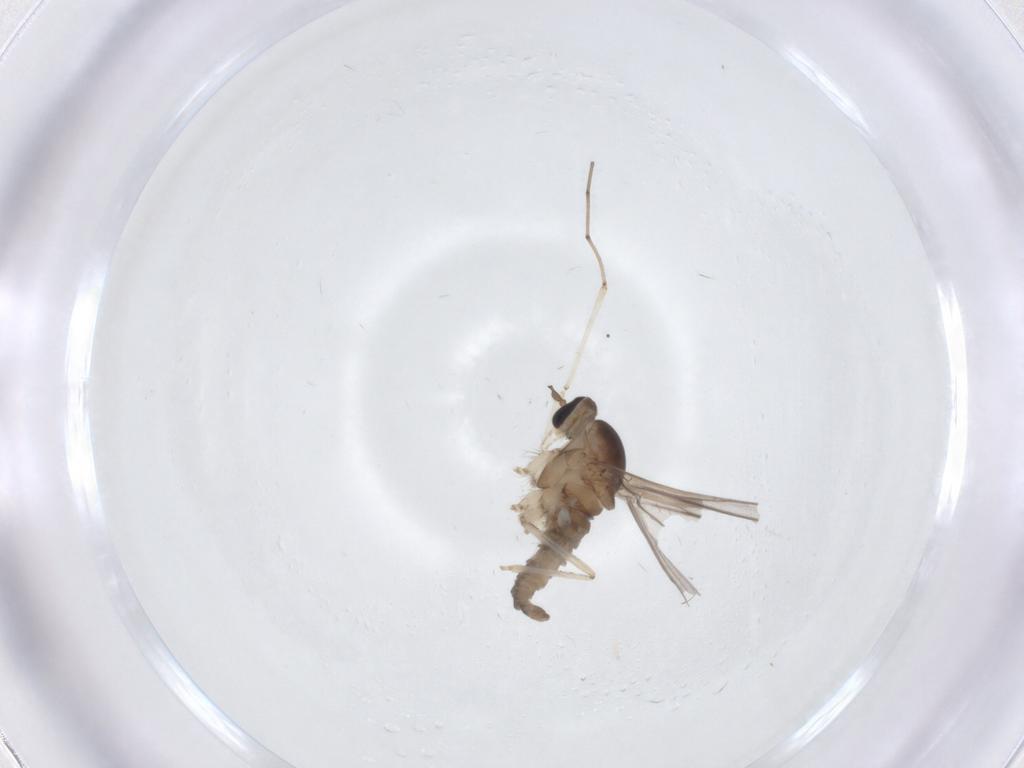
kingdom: Animalia
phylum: Arthropoda
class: Insecta
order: Diptera
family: Cecidomyiidae
